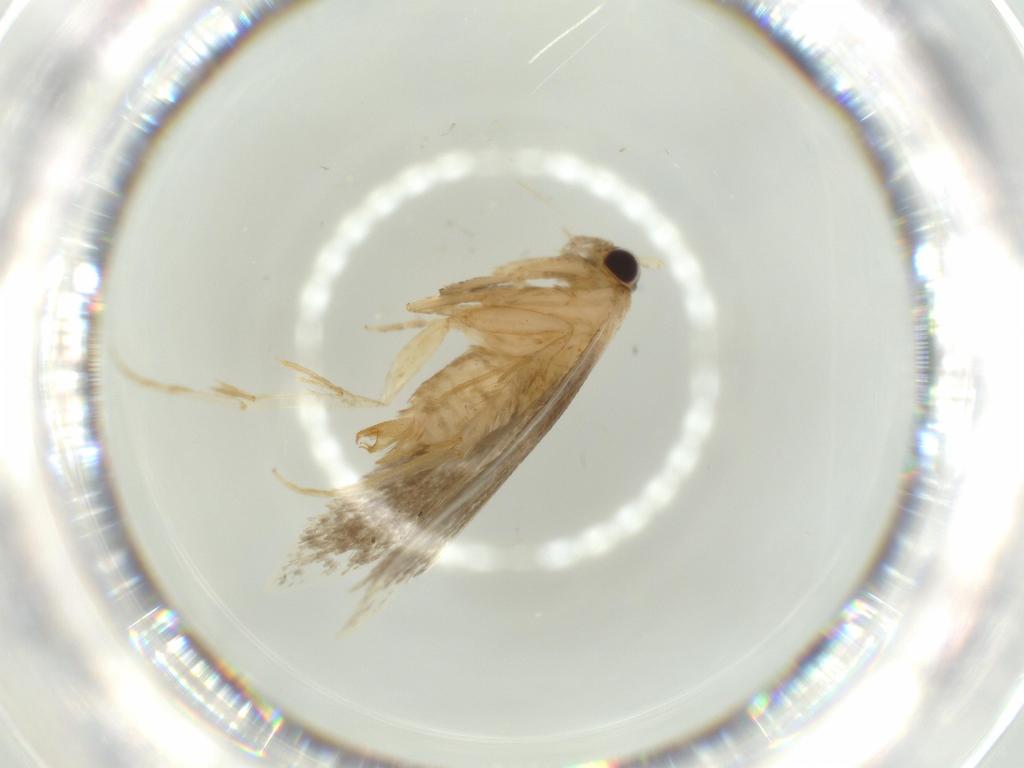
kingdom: Animalia
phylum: Arthropoda
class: Insecta
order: Lepidoptera
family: Tineidae
